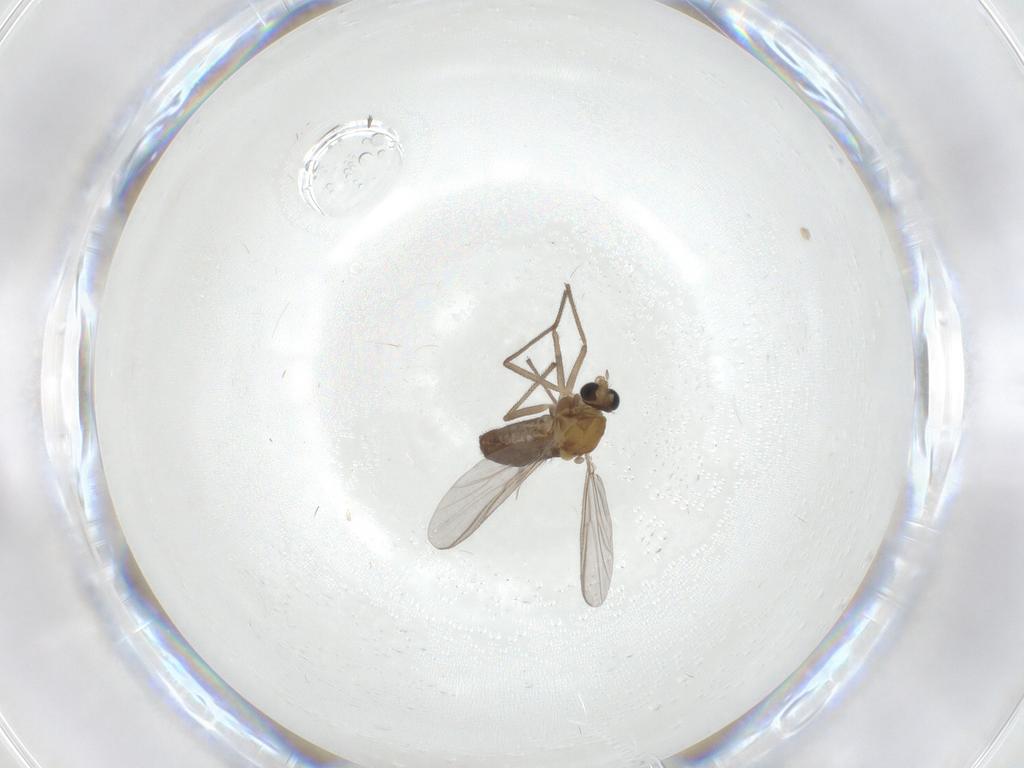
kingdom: Animalia
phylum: Arthropoda
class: Insecta
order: Diptera
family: Chironomidae
